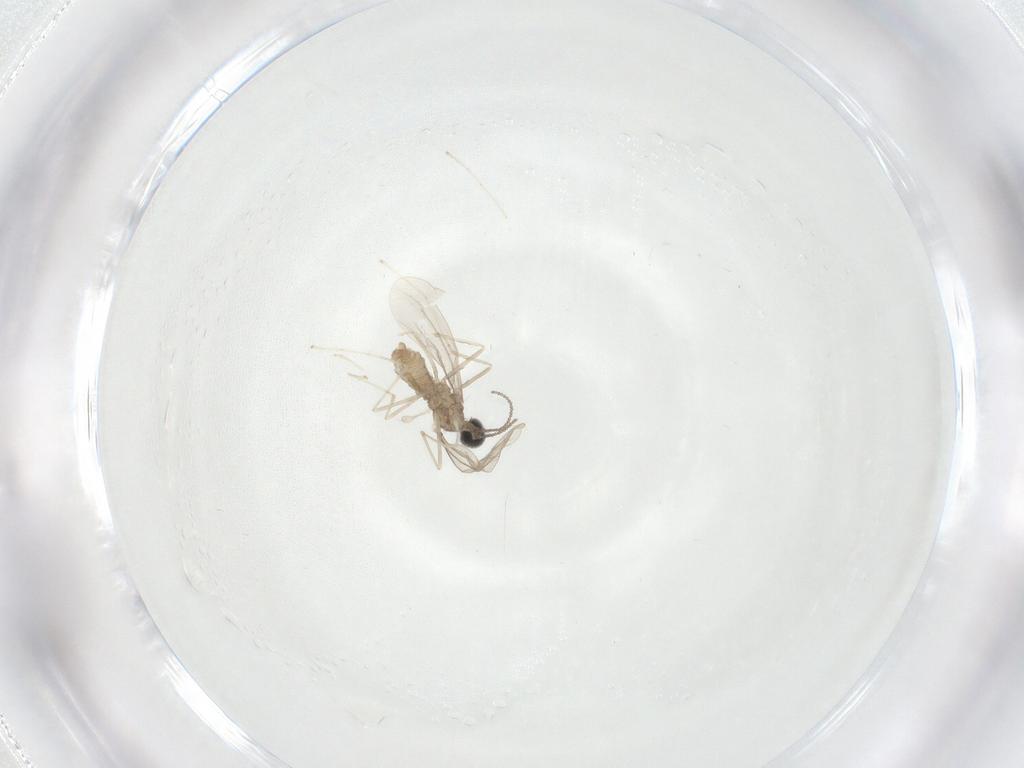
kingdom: Animalia
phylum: Arthropoda
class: Insecta
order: Diptera
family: Cecidomyiidae
